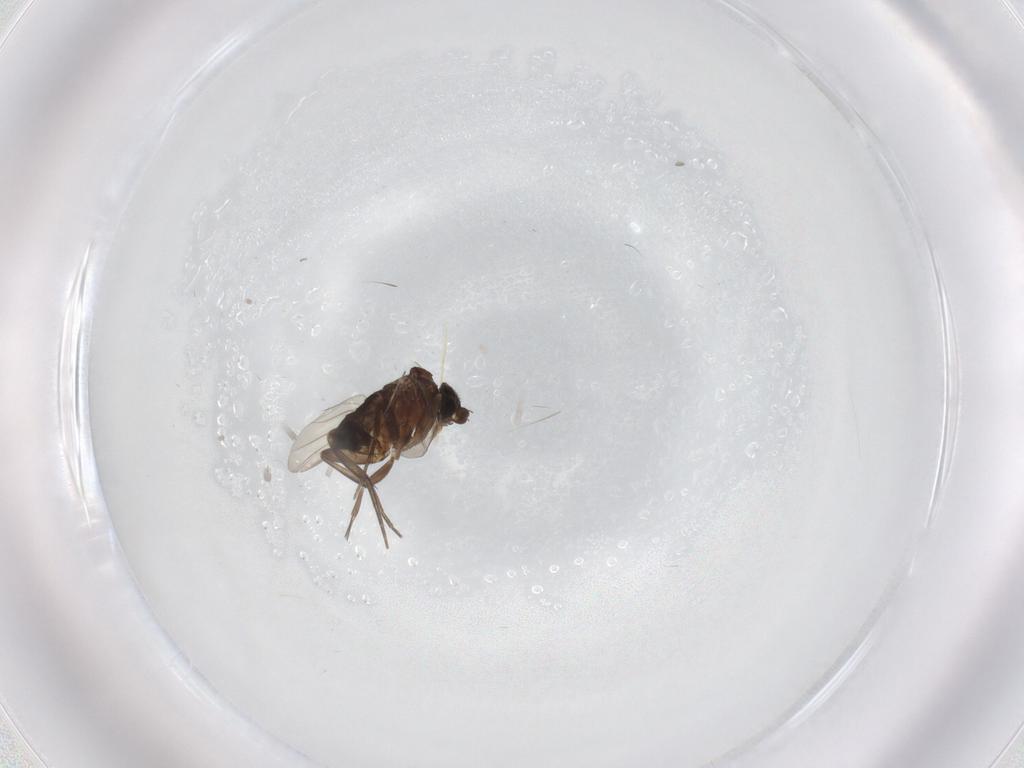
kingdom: Animalia
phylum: Arthropoda
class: Insecta
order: Diptera
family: Phoridae
